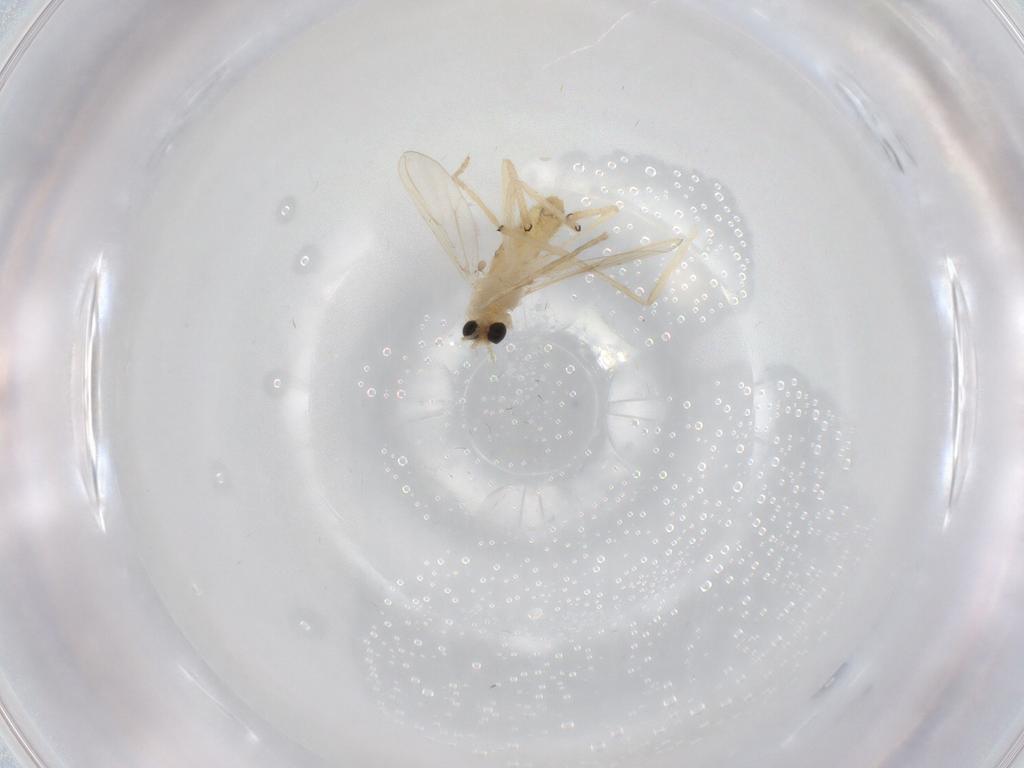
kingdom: Animalia
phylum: Arthropoda
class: Insecta
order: Diptera
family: Chironomidae
